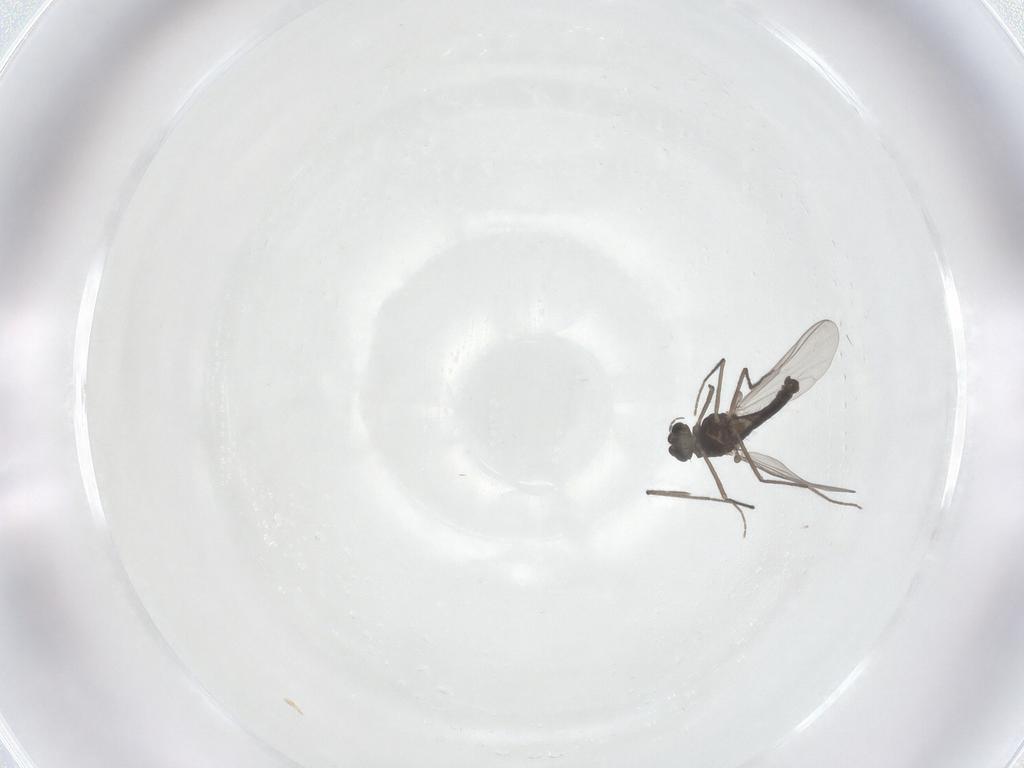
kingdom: Animalia
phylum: Arthropoda
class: Insecta
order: Diptera
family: Chironomidae
